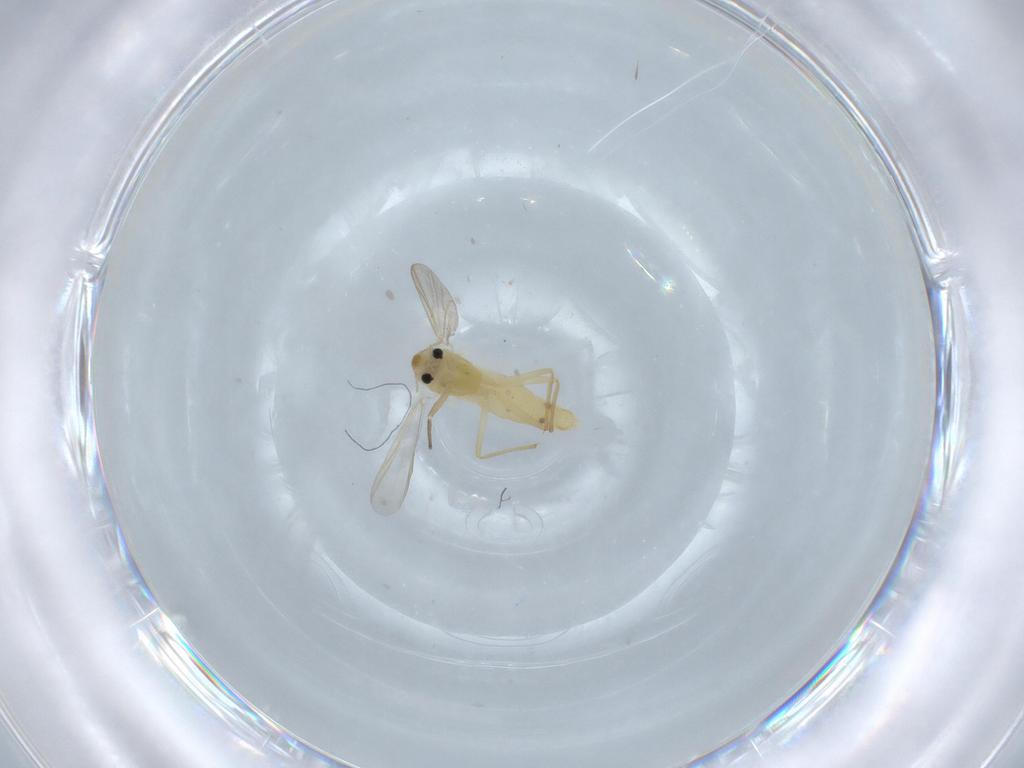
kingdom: Animalia
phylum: Arthropoda
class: Insecta
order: Diptera
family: Chironomidae
